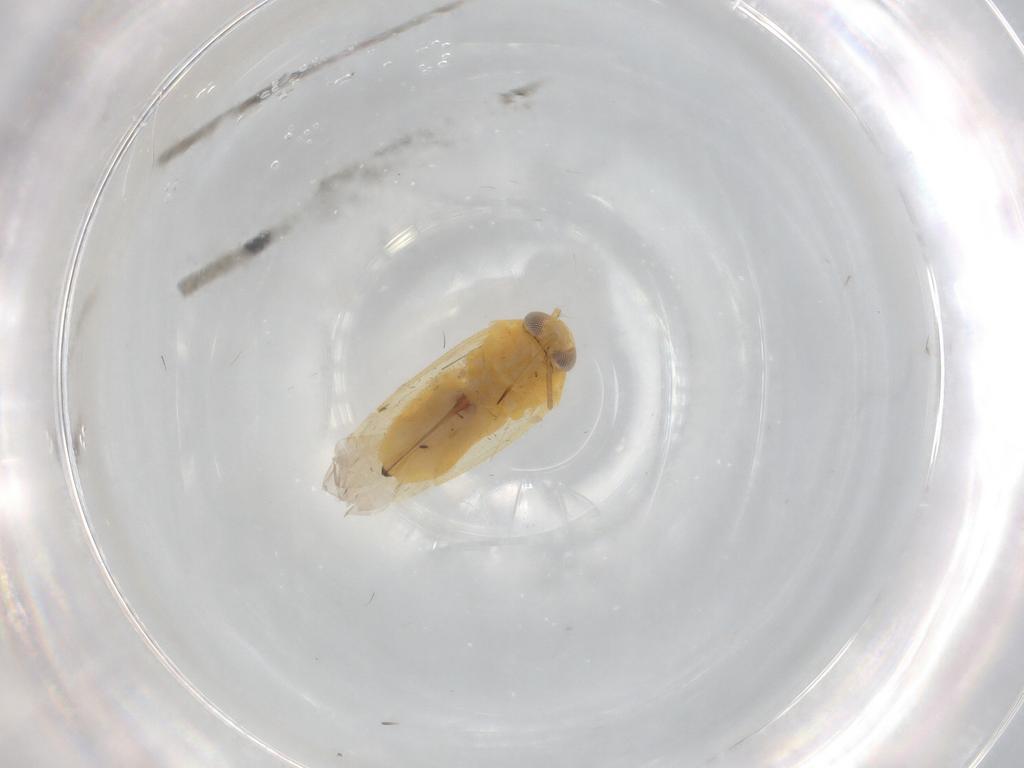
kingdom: Animalia
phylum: Arthropoda
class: Insecta
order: Hemiptera
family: Miridae
